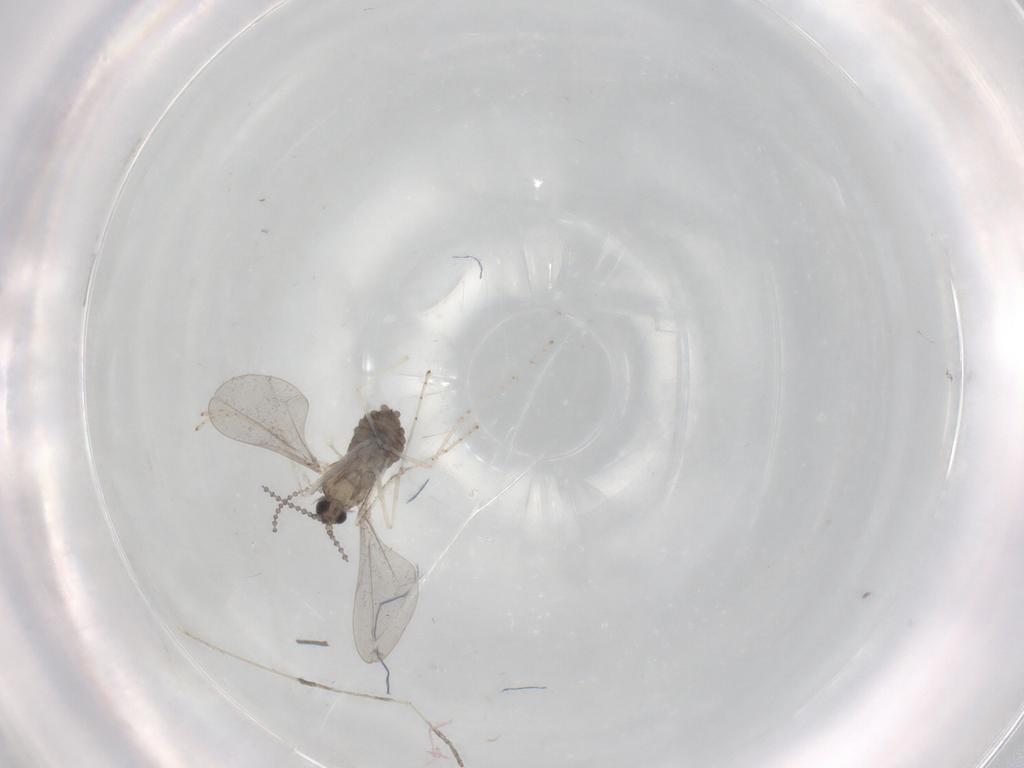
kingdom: Animalia
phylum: Arthropoda
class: Insecta
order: Diptera
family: Cecidomyiidae
